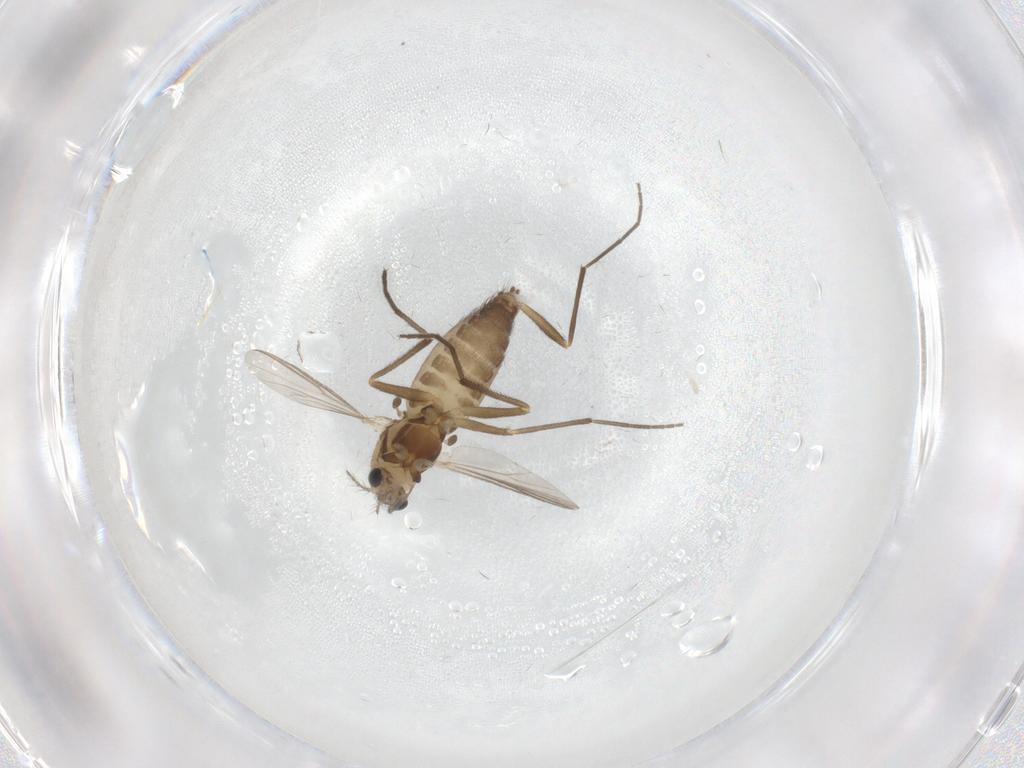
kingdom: Animalia
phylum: Arthropoda
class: Insecta
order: Diptera
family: Chironomidae
